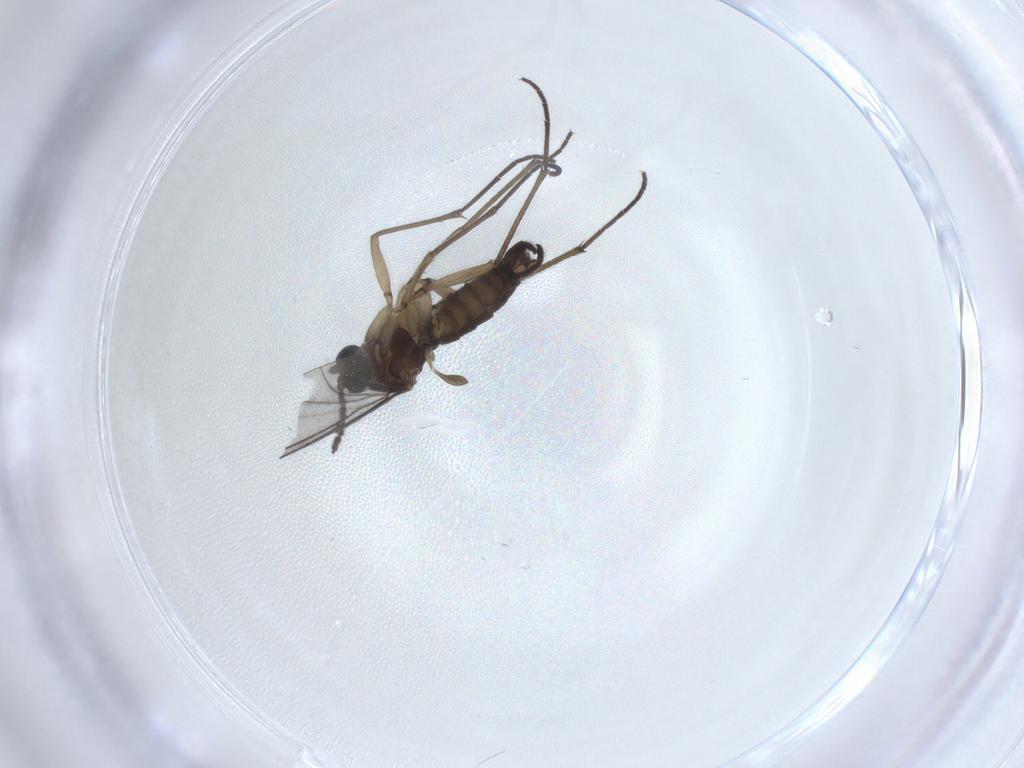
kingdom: Animalia
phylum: Arthropoda
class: Insecta
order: Diptera
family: Sciaridae
